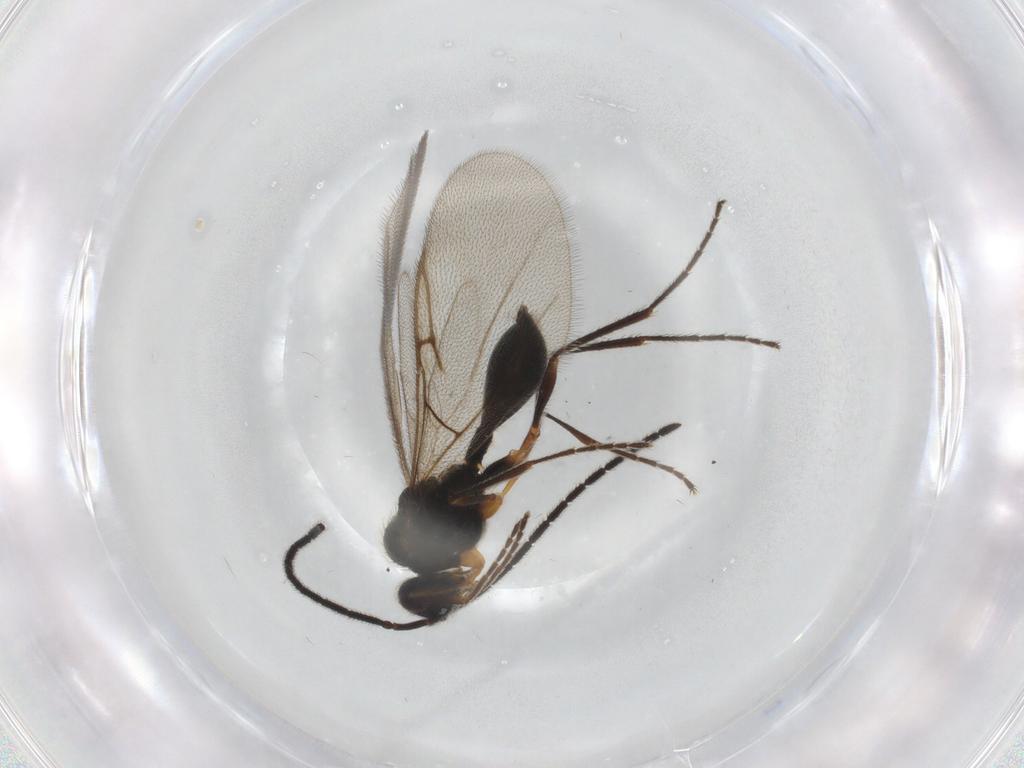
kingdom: Animalia
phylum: Arthropoda
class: Insecta
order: Hymenoptera
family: Diapriidae
